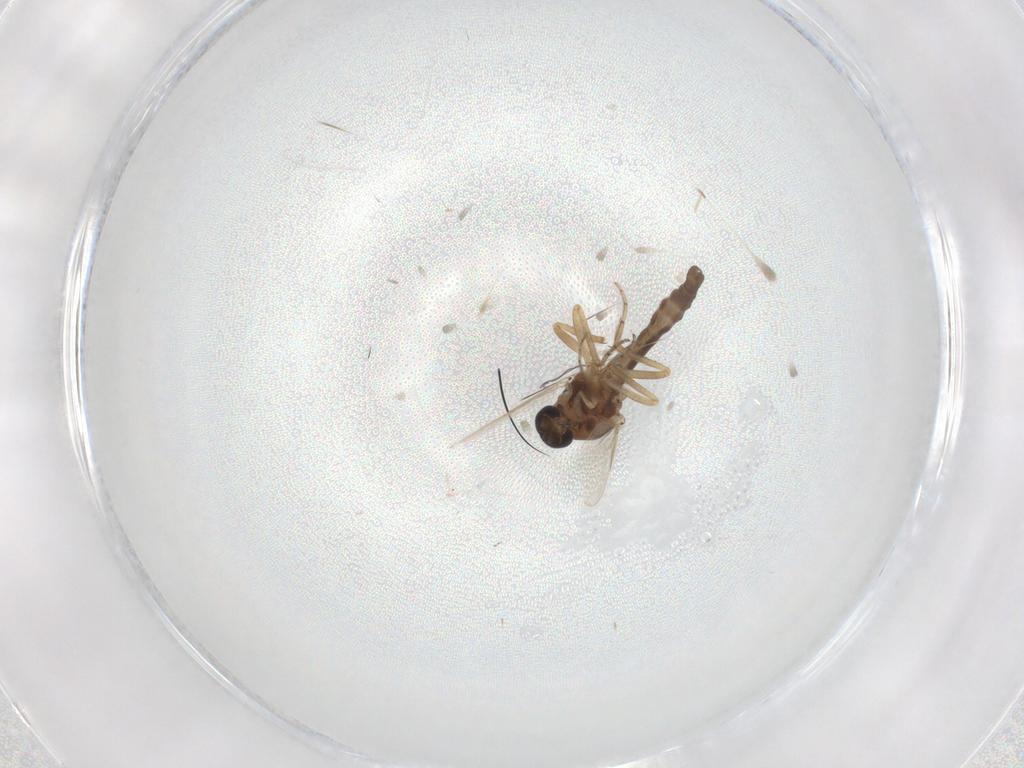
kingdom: Animalia
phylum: Arthropoda
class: Insecta
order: Diptera
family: Ceratopogonidae
